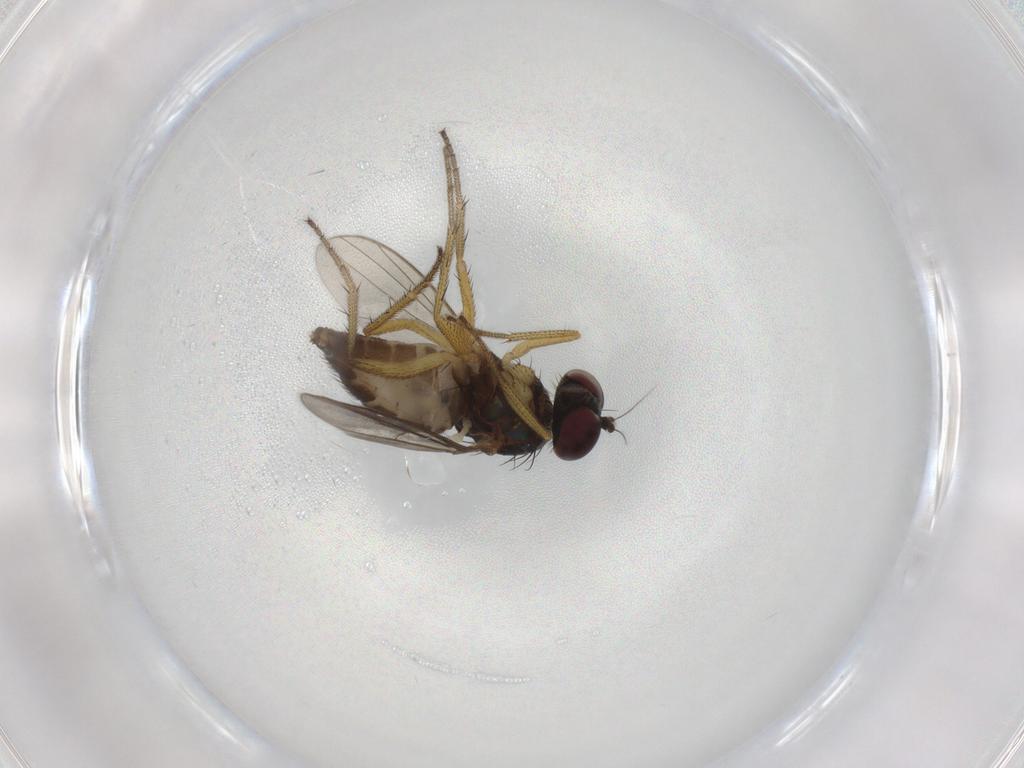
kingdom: Animalia
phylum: Arthropoda
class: Insecta
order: Diptera
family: Dolichopodidae
